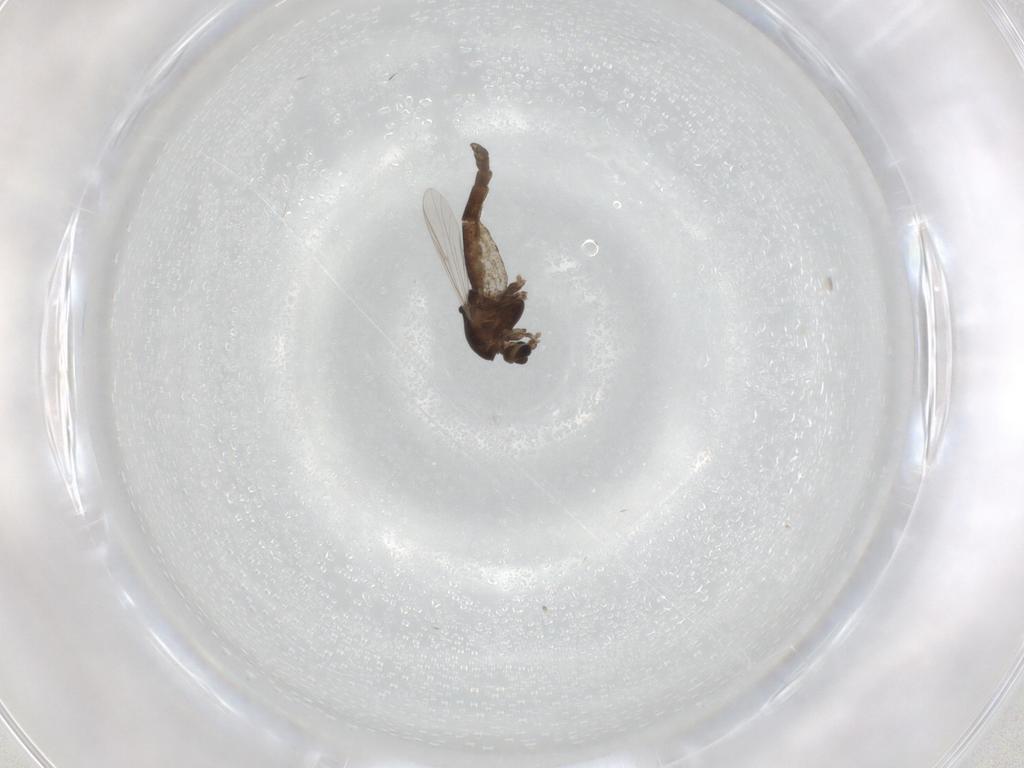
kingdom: Animalia
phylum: Arthropoda
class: Insecta
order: Diptera
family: Chironomidae
